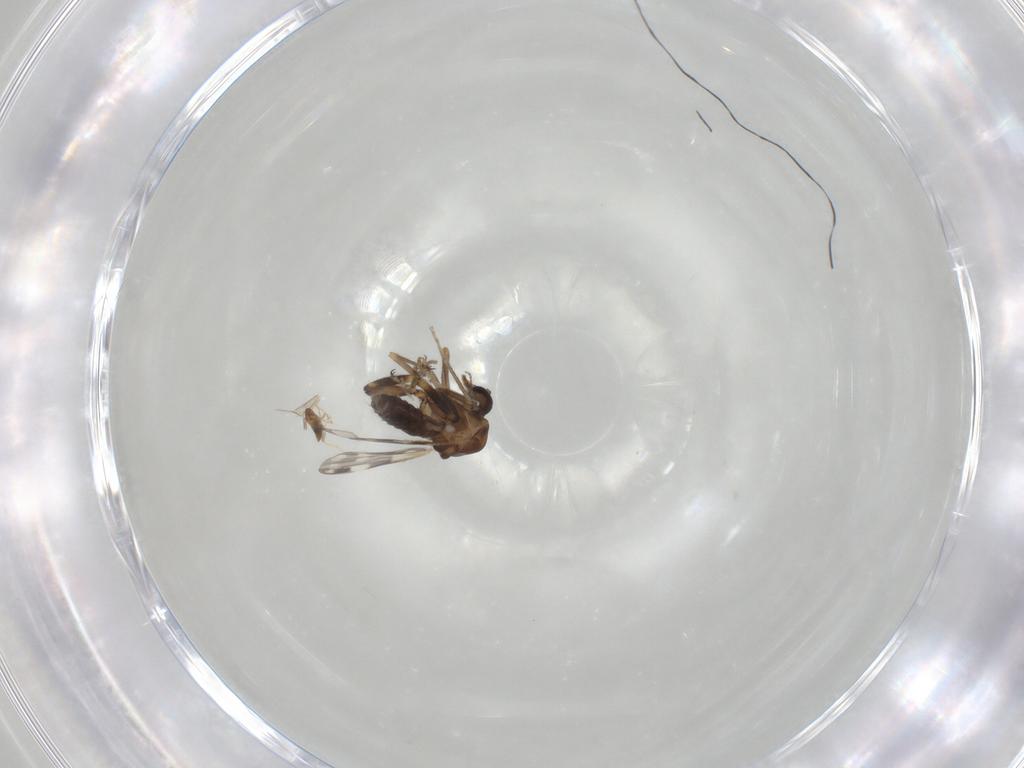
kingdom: Animalia
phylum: Arthropoda
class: Insecta
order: Diptera
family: Ceratopogonidae
